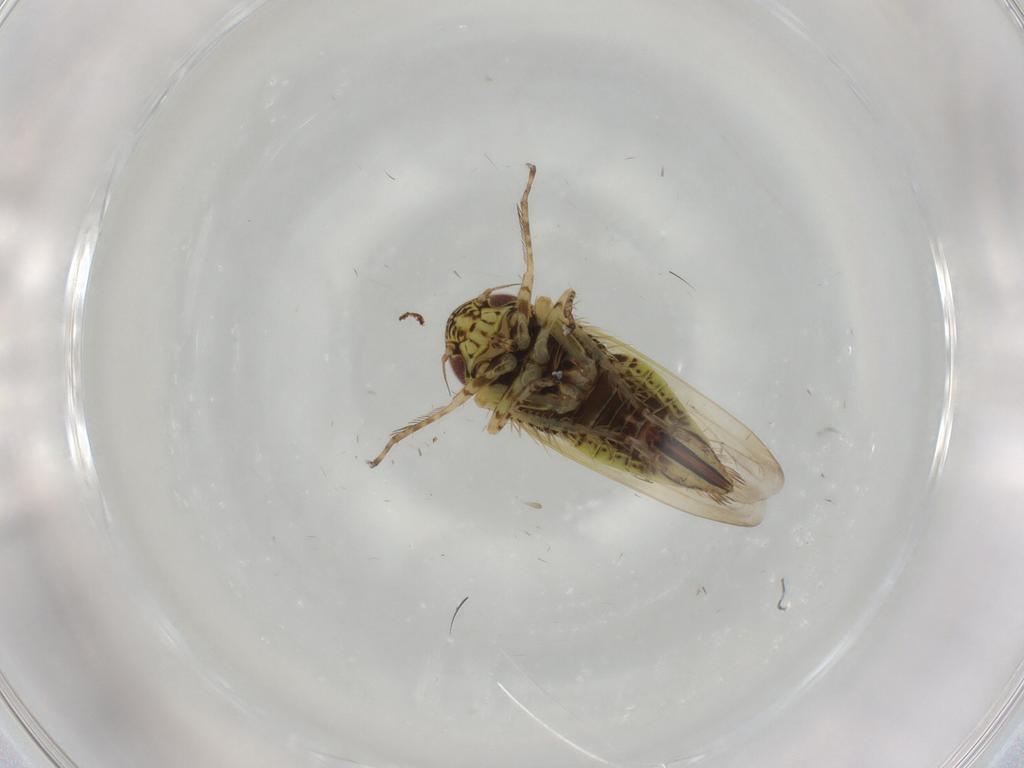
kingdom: Animalia
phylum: Arthropoda
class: Insecta
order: Hemiptera
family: Cicadellidae
